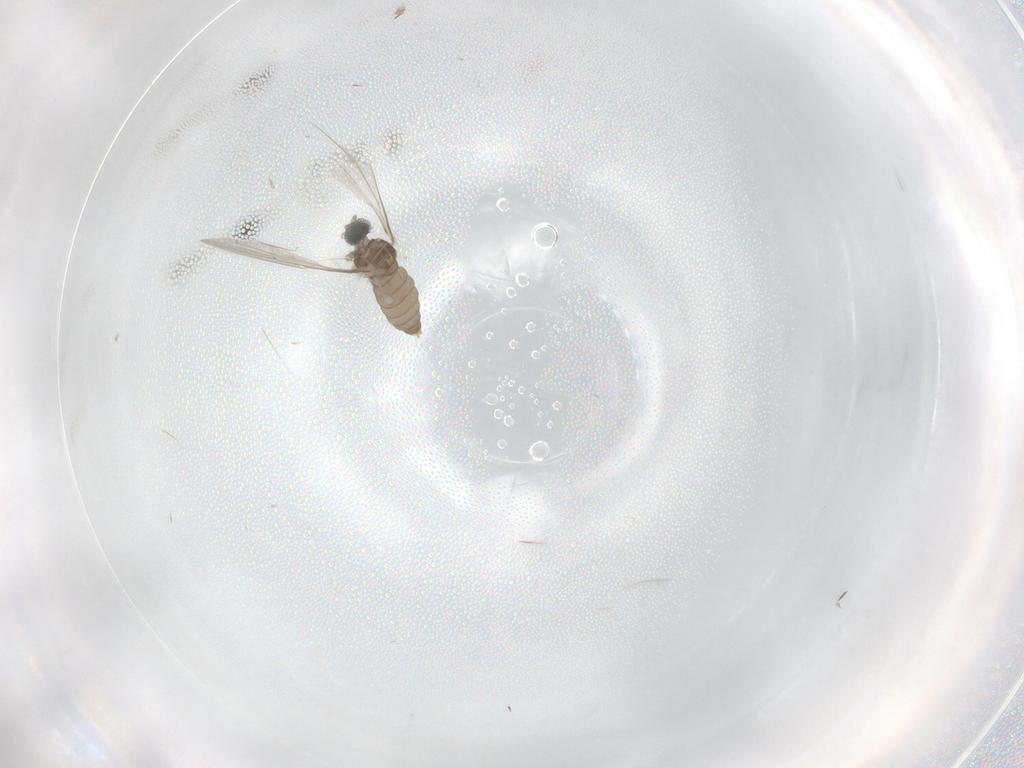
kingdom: Animalia
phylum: Arthropoda
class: Insecta
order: Diptera
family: Cecidomyiidae
